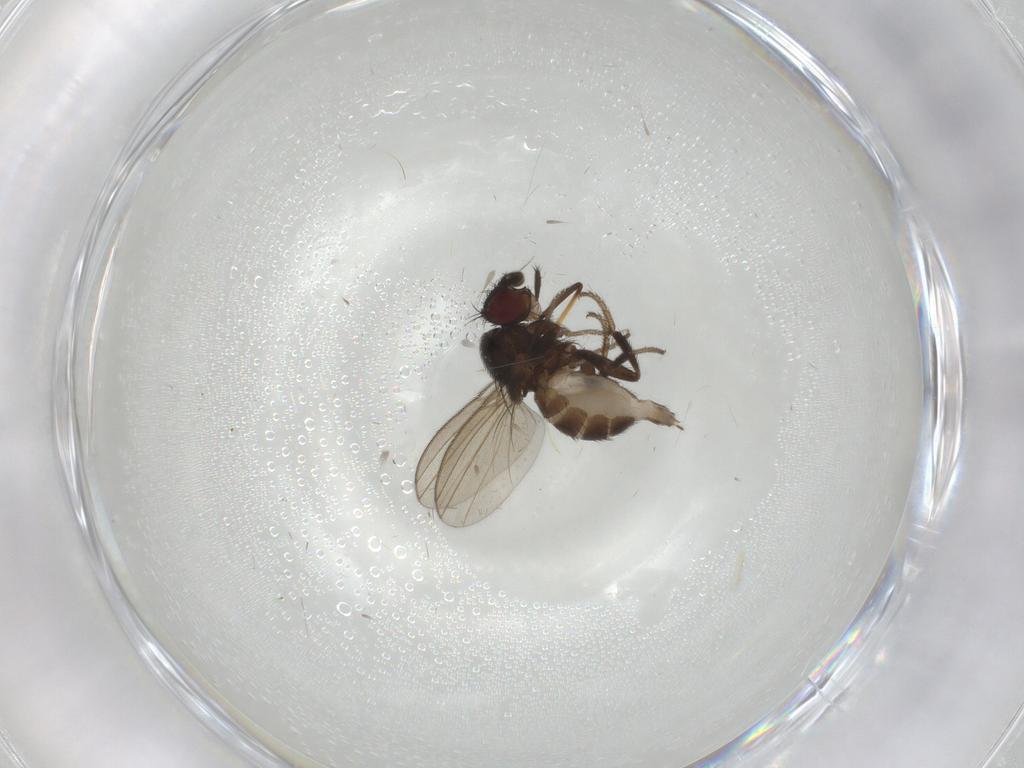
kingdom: Animalia
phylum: Arthropoda
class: Insecta
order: Diptera
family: Milichiidae
